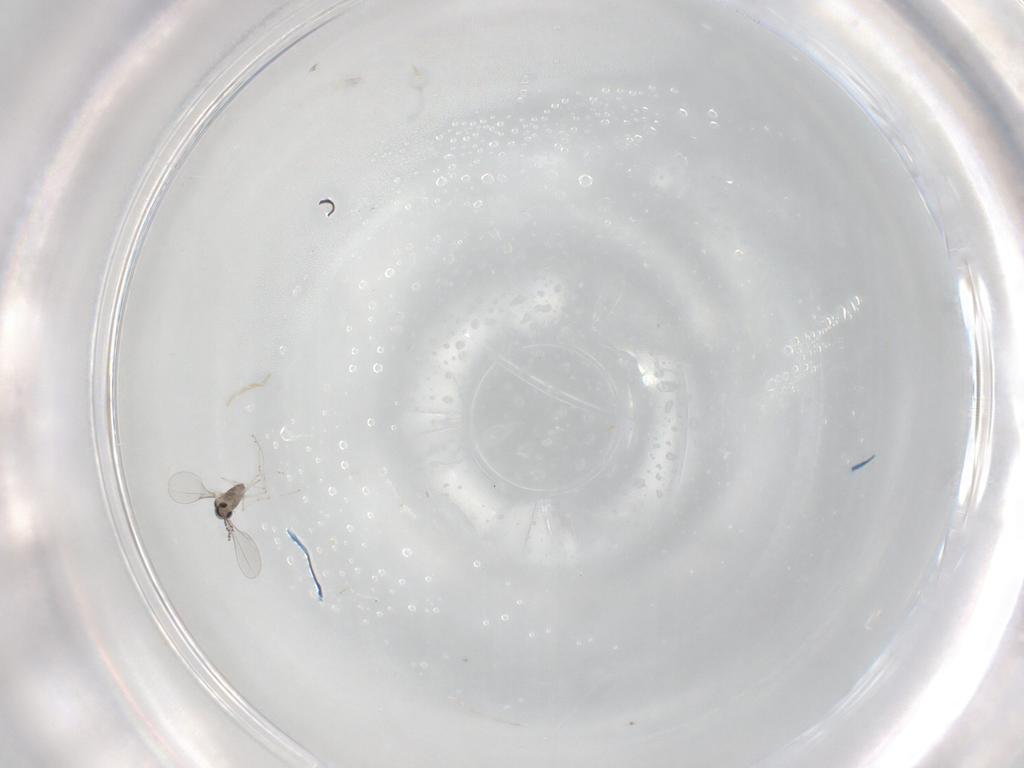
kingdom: Animalia
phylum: Arthropoda
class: Insecta
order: Diptera
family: Cecidomyiidae
